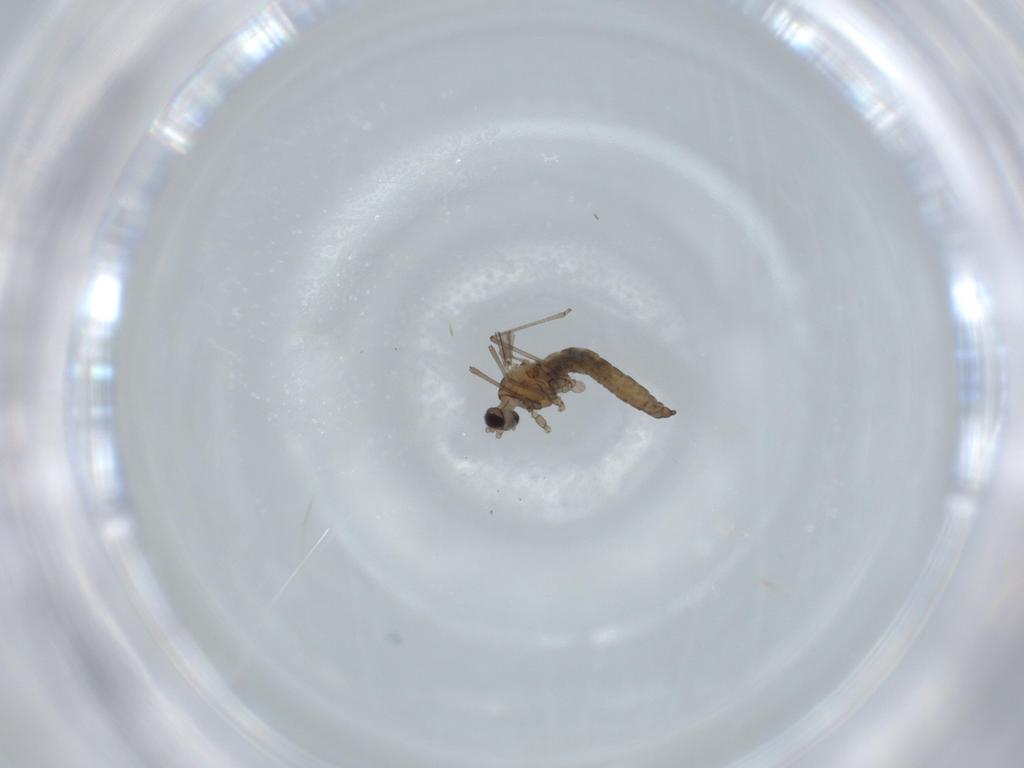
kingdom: Animalia
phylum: Arthropoda
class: Insecta
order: Diptera
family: Cecidomyiidae
